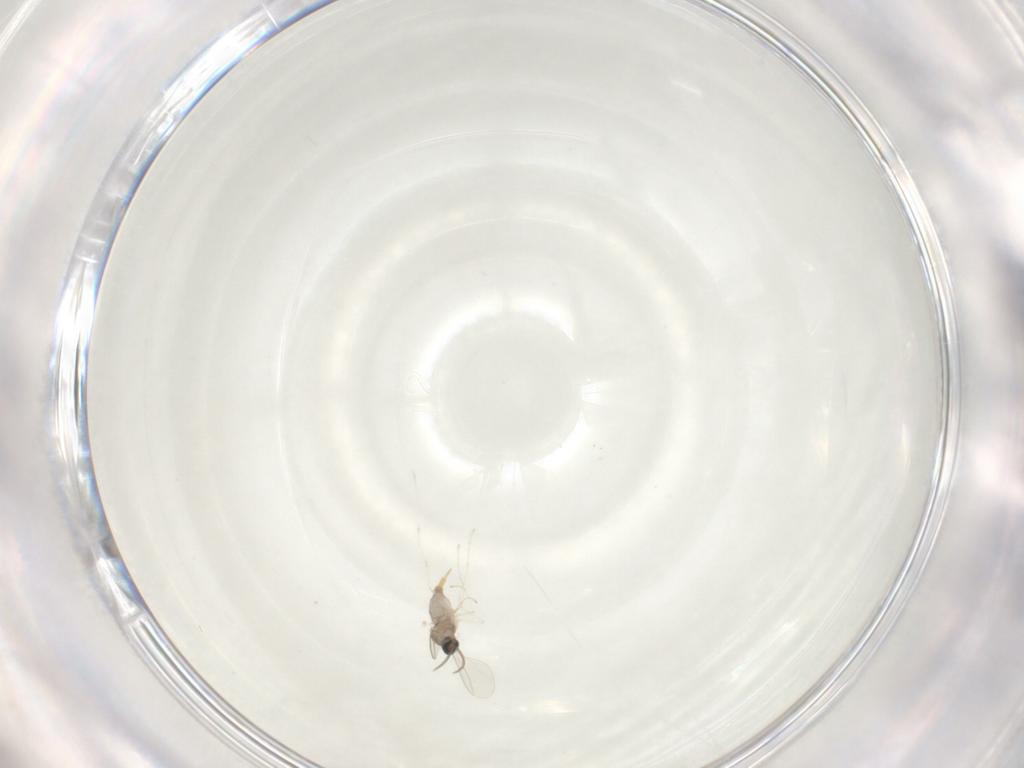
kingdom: Animalia
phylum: Arthropoda
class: Insecta
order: Diptera
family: Cecidomyiidae
